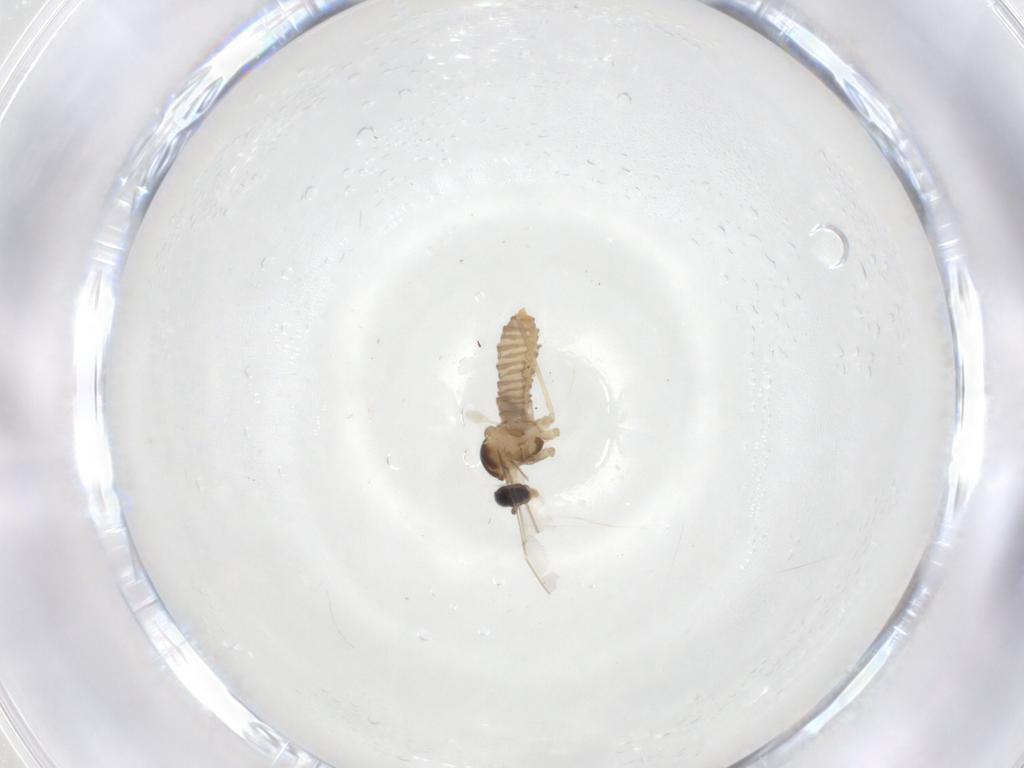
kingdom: Animalia
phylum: Arthropoda
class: Insecta
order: Diptera
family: Cecidomyiidae
